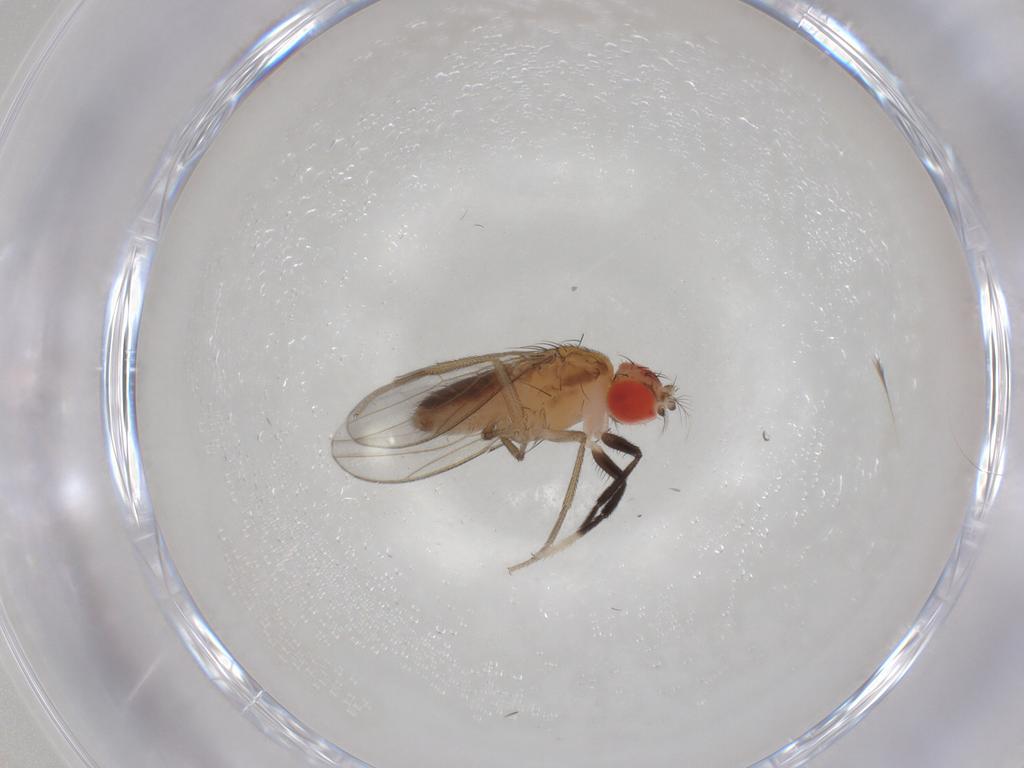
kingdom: Animalia
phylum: Arthropoda
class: Insecta
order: Diptera
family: Drosophilidae
